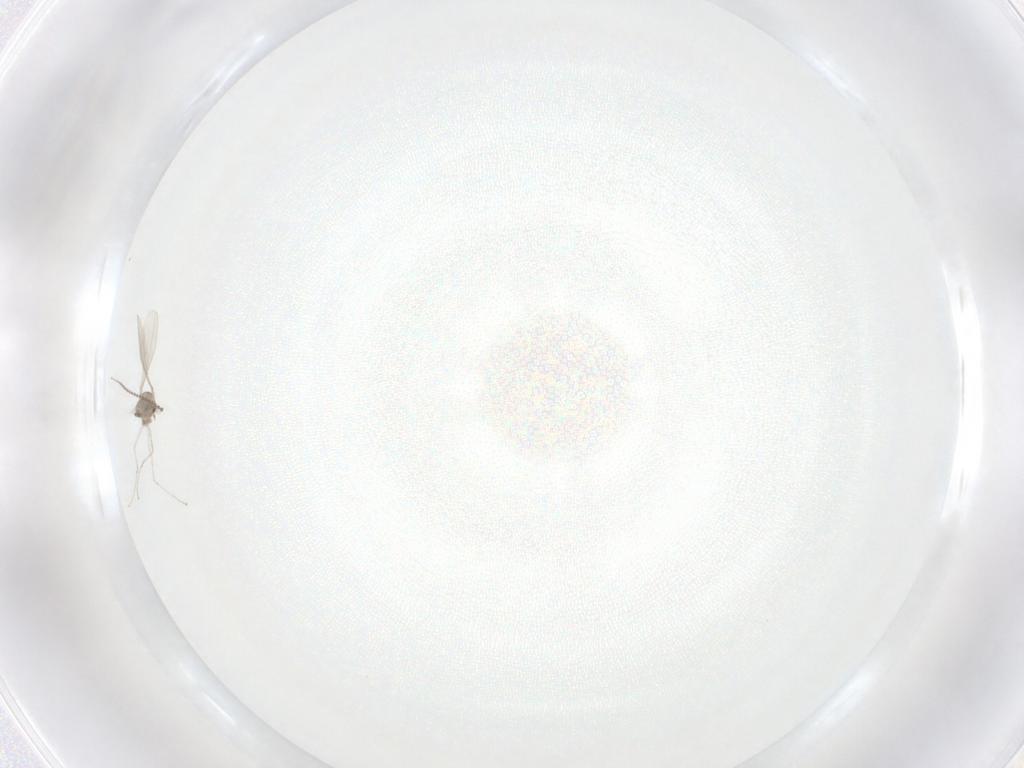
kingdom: Animalia
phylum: Arthropoda
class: Insecta
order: Diptera
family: Cecidomyiidae
